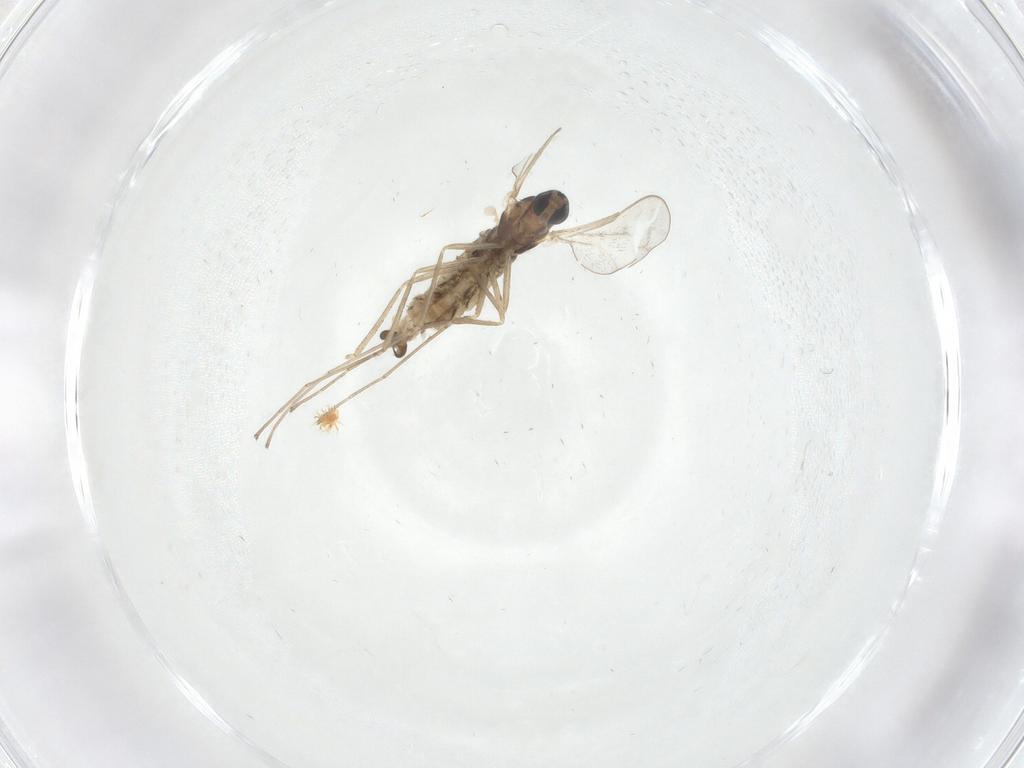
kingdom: Animalia
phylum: Arthropoda
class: Insecta
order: Diptera
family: Cecidomyiidae
